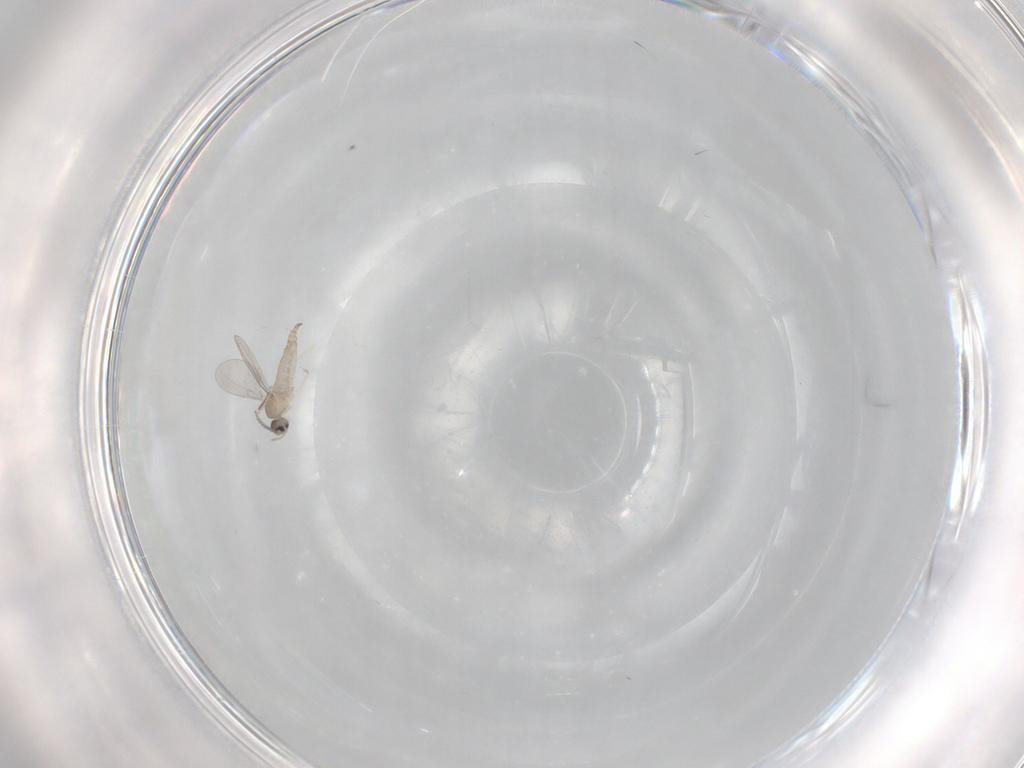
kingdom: Animalia
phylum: Arthropoda
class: Insecta
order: Diptera
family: Cecidomyiidae
